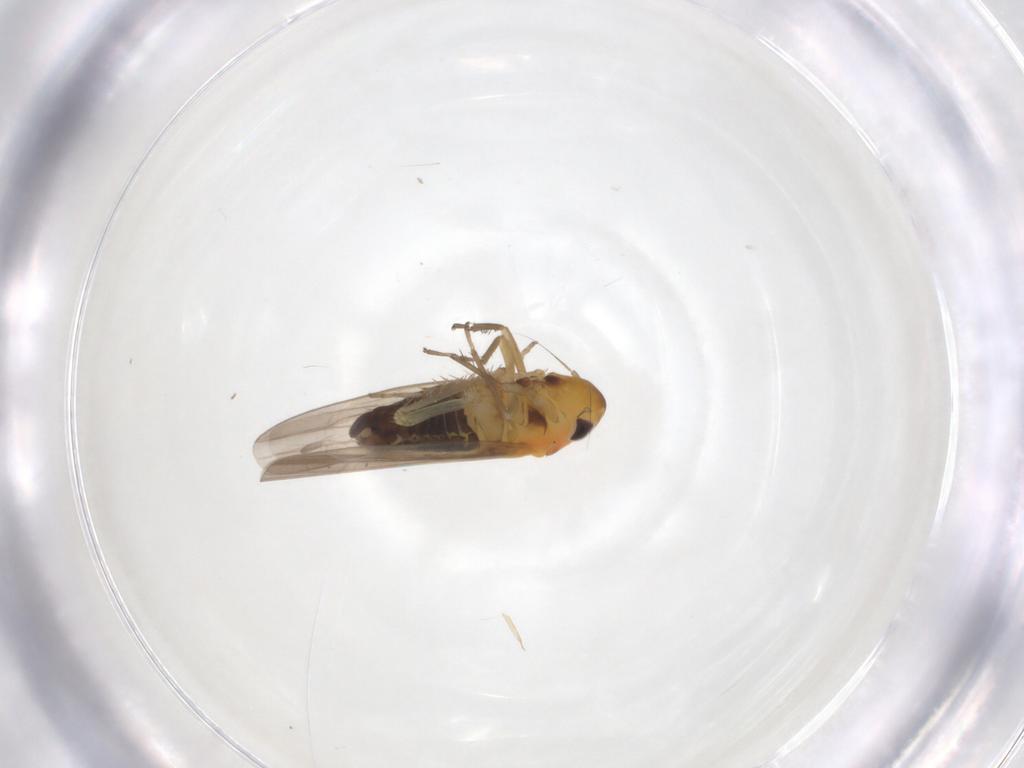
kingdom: Animalia
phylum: Arthropoda
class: Insecta
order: Hemiptera
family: Cicadellidae
